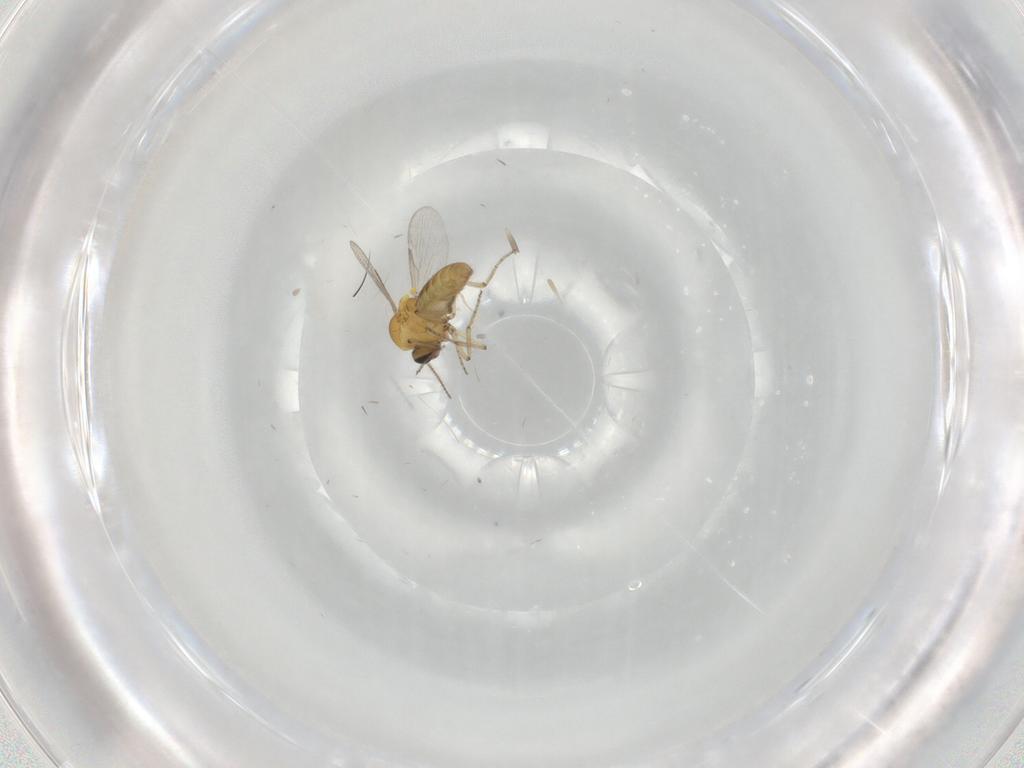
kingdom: Animalia
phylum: Arthropoda
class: Insecta
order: Diptera
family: Ceratopogonidae
